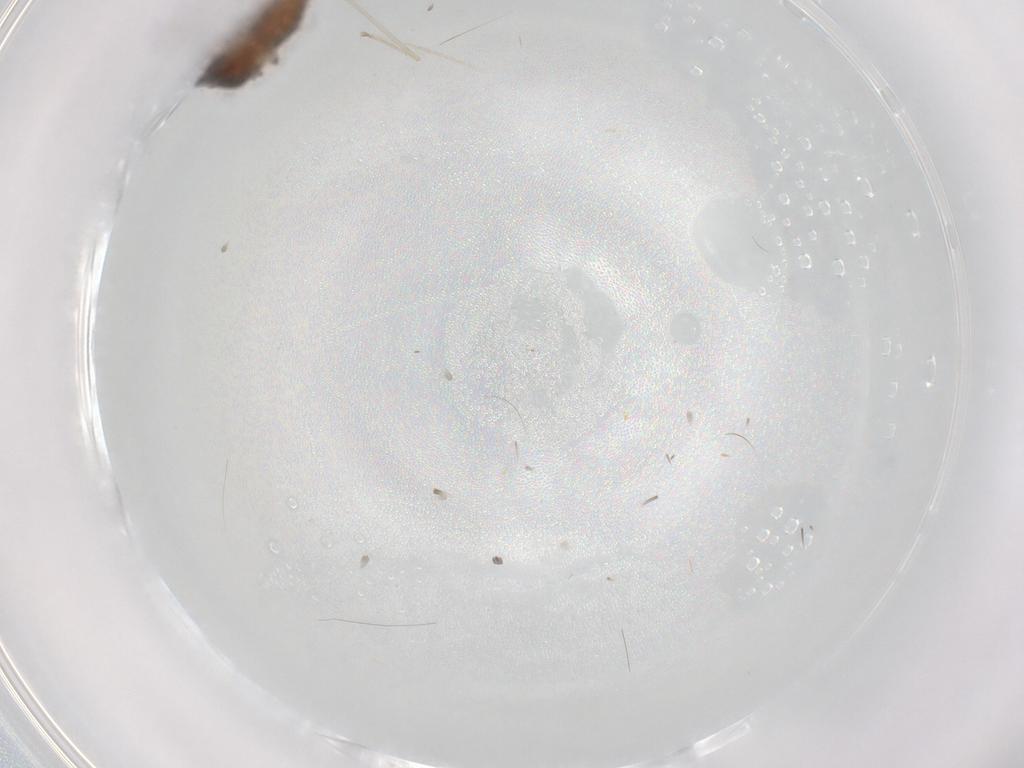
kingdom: Animalia
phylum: Arthropoda
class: Insecta
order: Diptera
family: Ceratopogonidae
